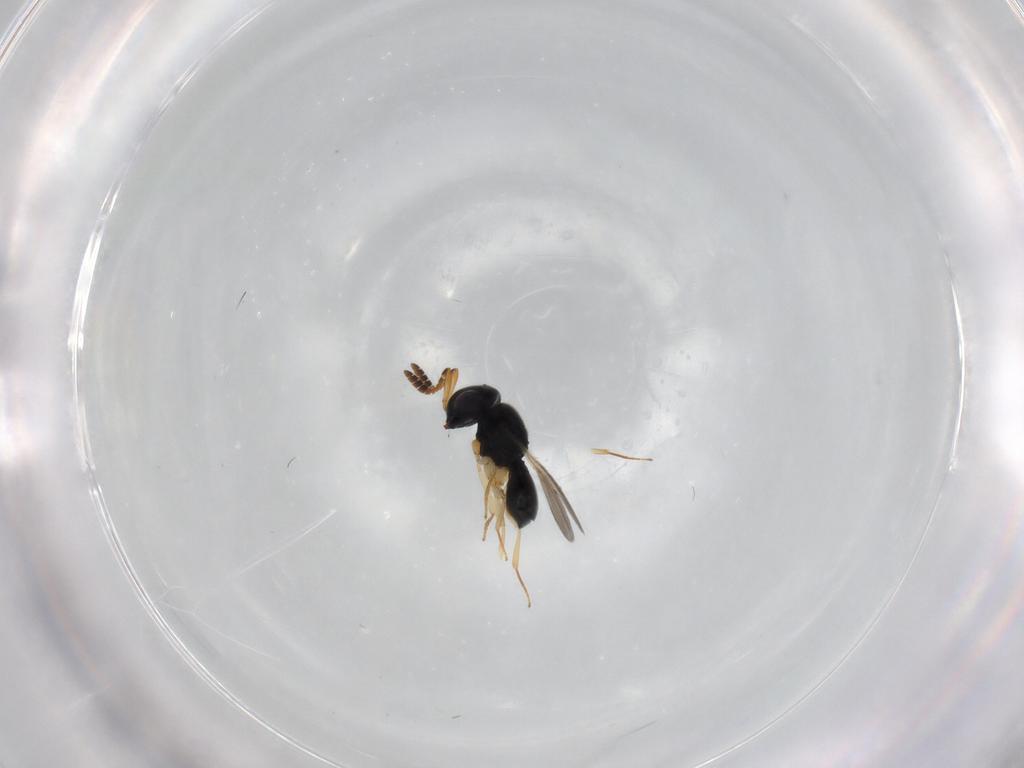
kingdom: Animalia
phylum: Arthropoda
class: Insecta
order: Hymenoptera
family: Scelionidae
